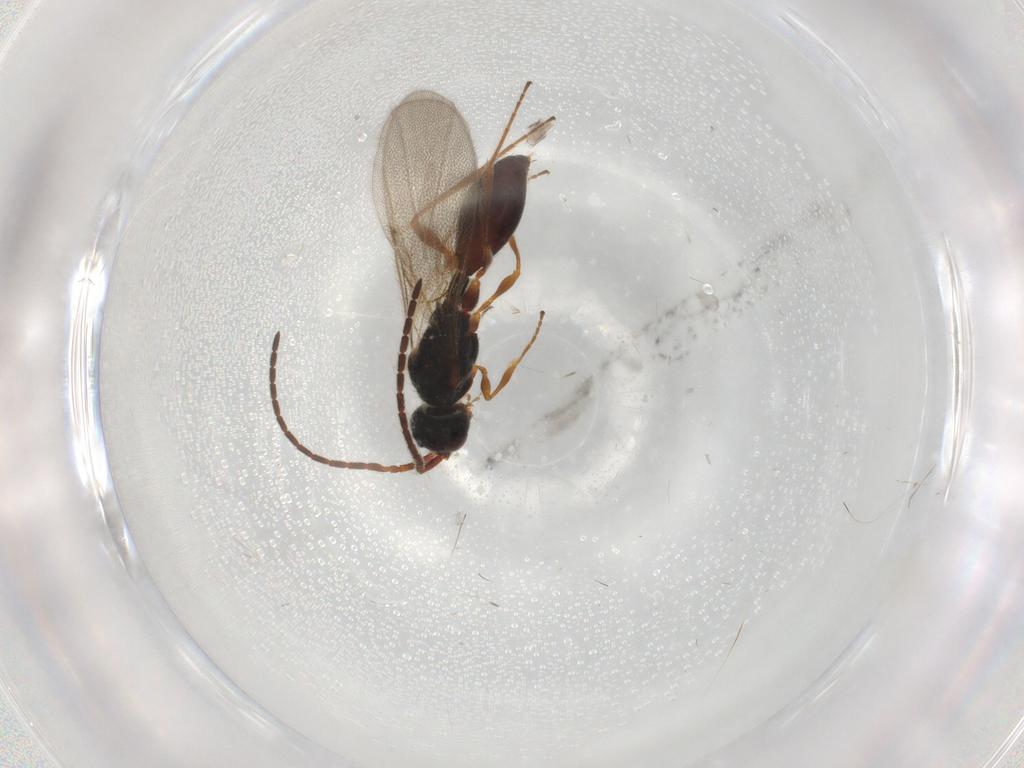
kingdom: Animalia
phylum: Arthropoda
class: Insecta
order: Hymenoptera
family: Diapriidae
